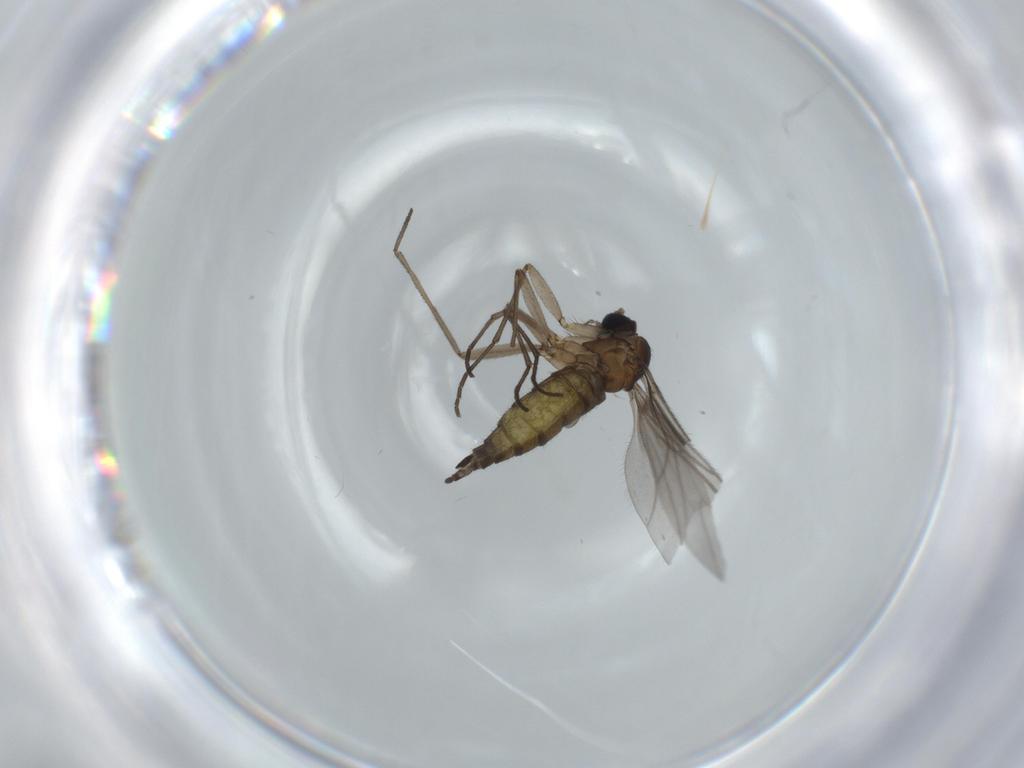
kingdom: Animalia
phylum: Arthropoda
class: Insecta
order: Diptera
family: Sciaridae
